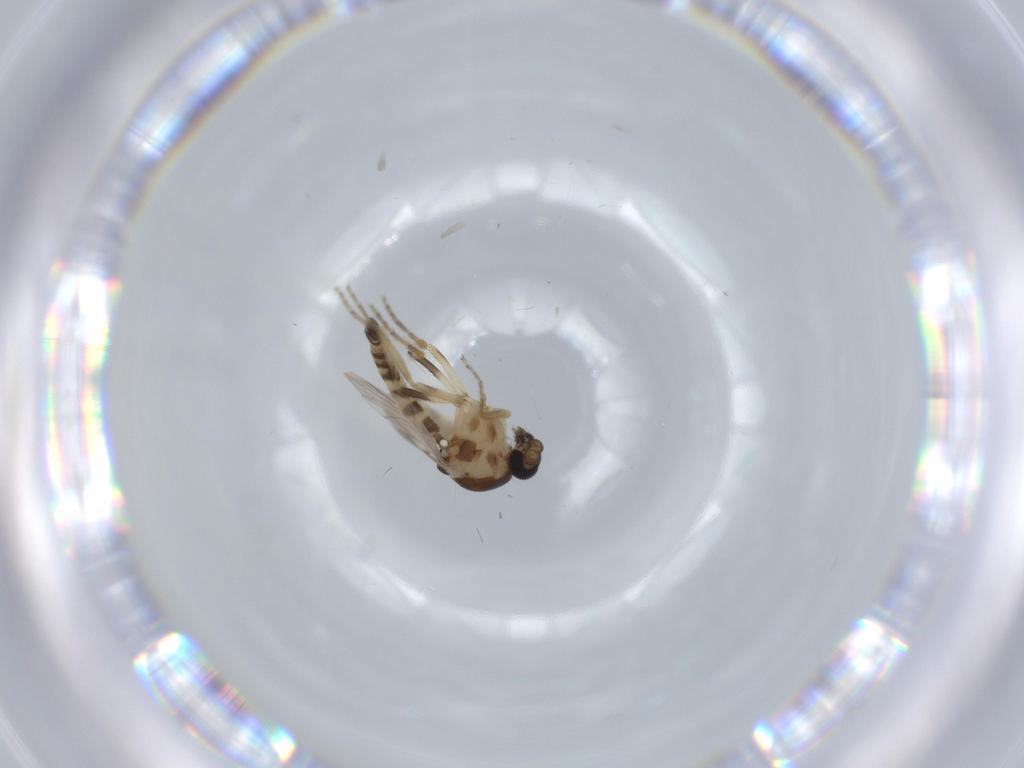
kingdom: Animalia
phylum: Arthropoda
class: Insecta
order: Diptera
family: Ceratopogonidae
